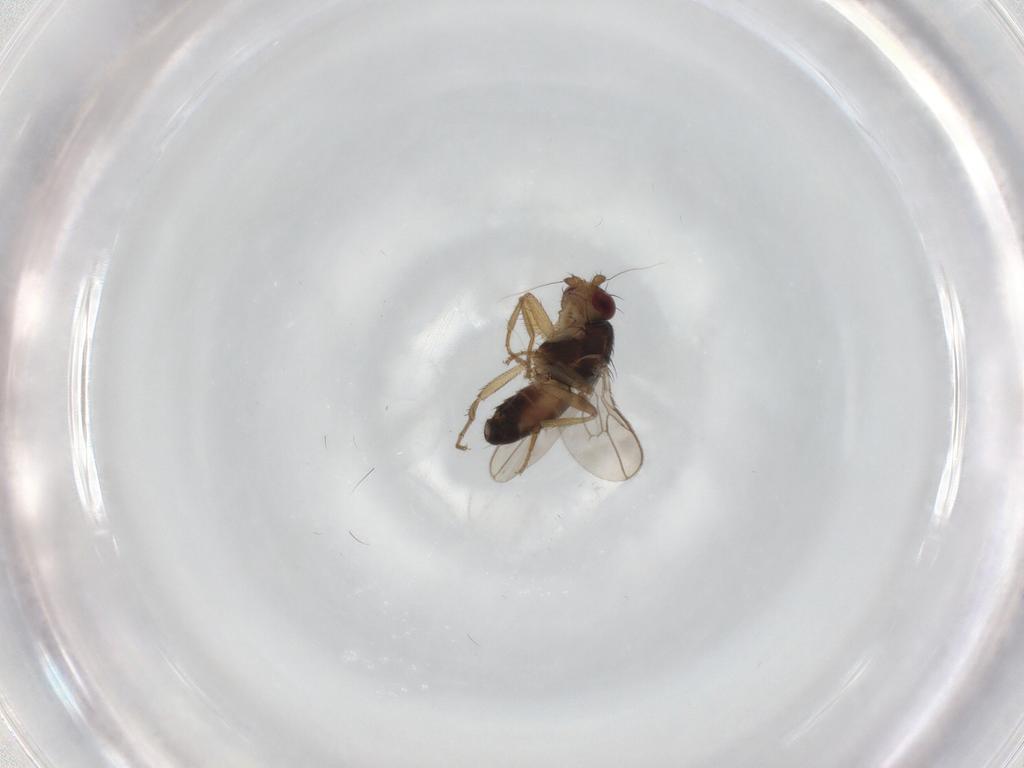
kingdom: Animalia
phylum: Arthropoda
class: Insecta
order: Diptera
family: Sphaeroceridae
